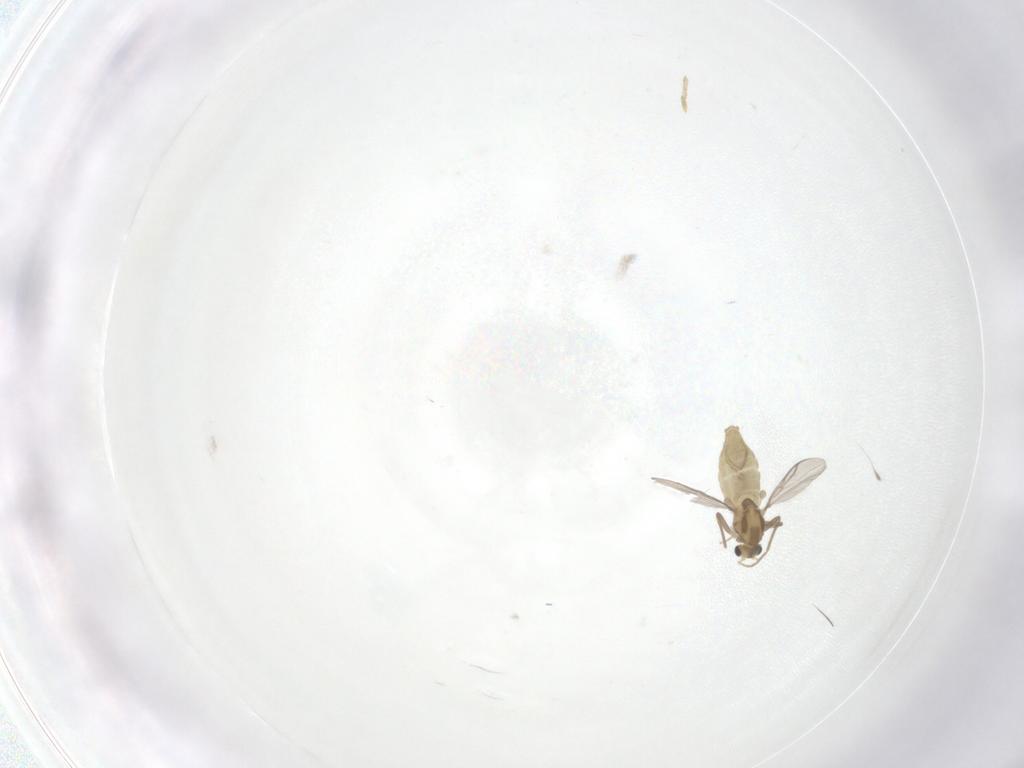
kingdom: Animalia
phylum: Arthropoda
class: Insecta
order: Diptera
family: Chironomidae
